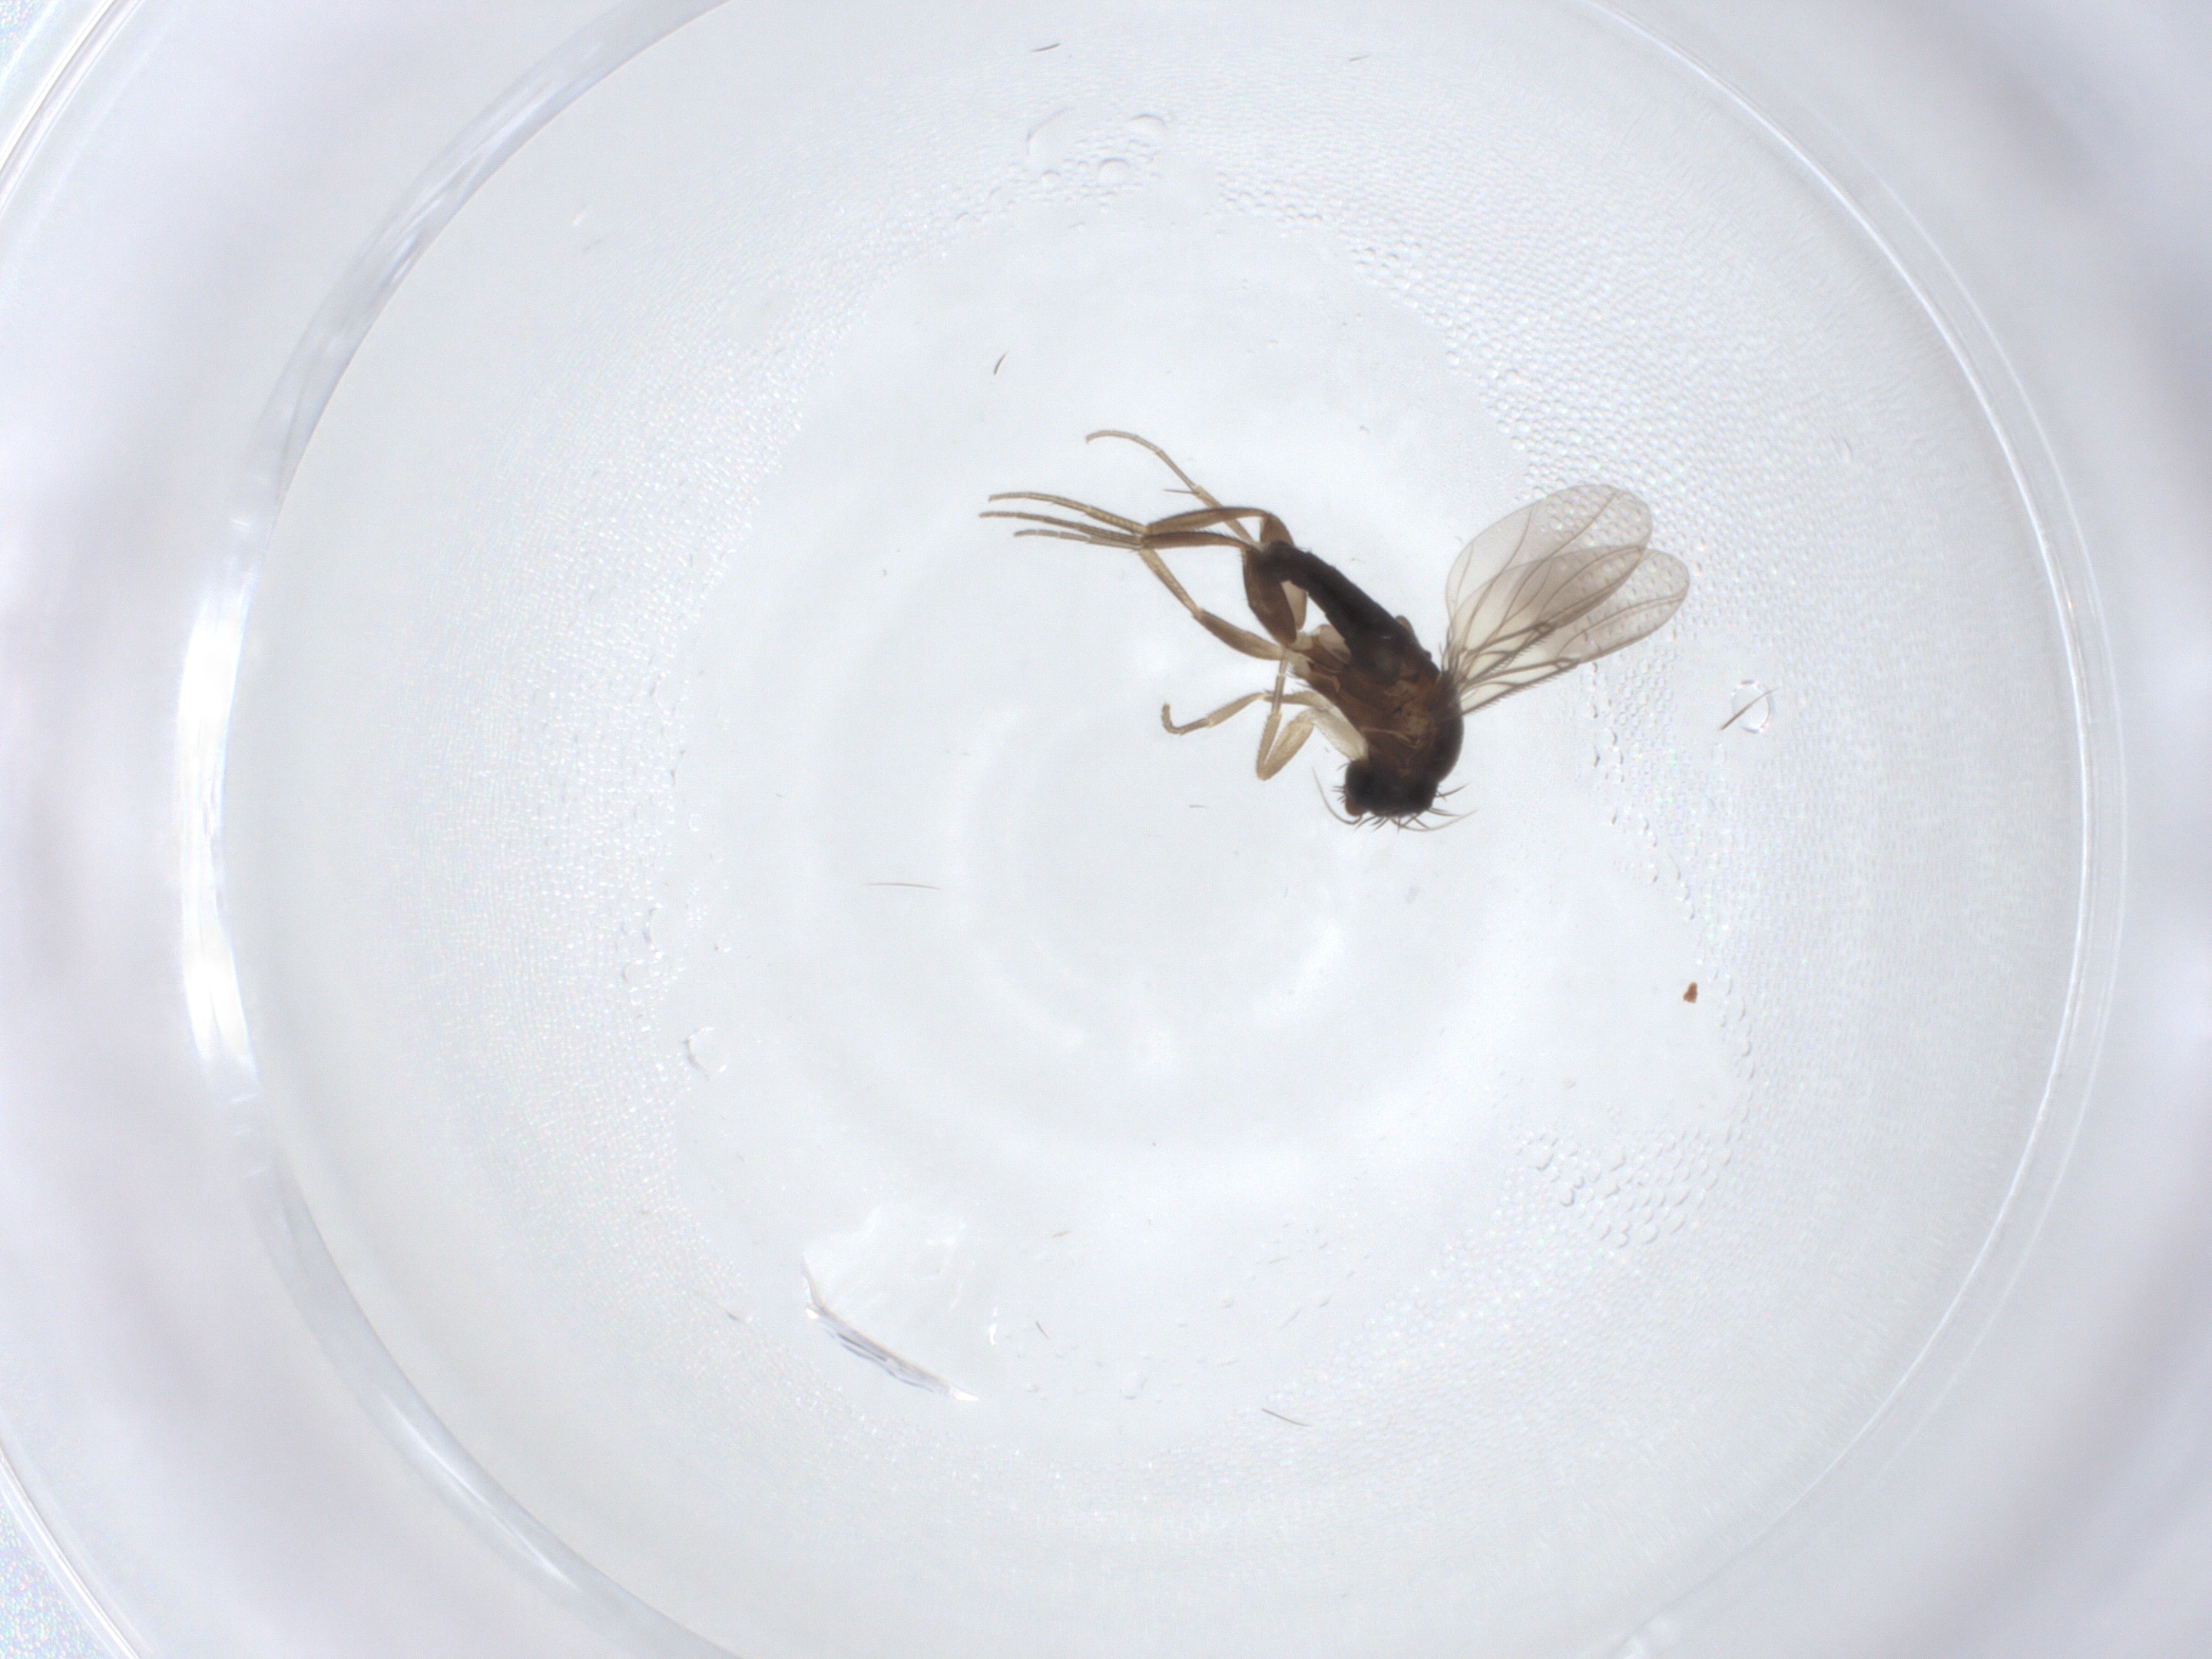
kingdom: Animalia
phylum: Arthropoda
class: Insecta
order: Diptera
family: Phoridae
